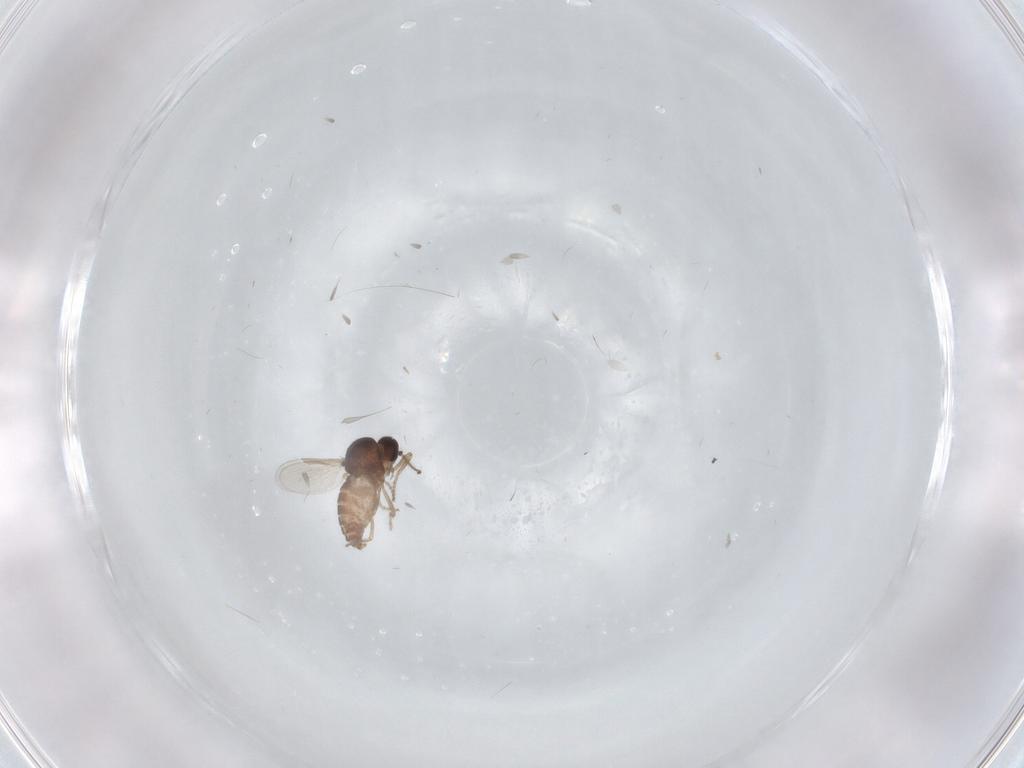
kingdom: Animalia
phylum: Arthropoda
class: Insecta
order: Diptera
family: Ceratopogonidae
